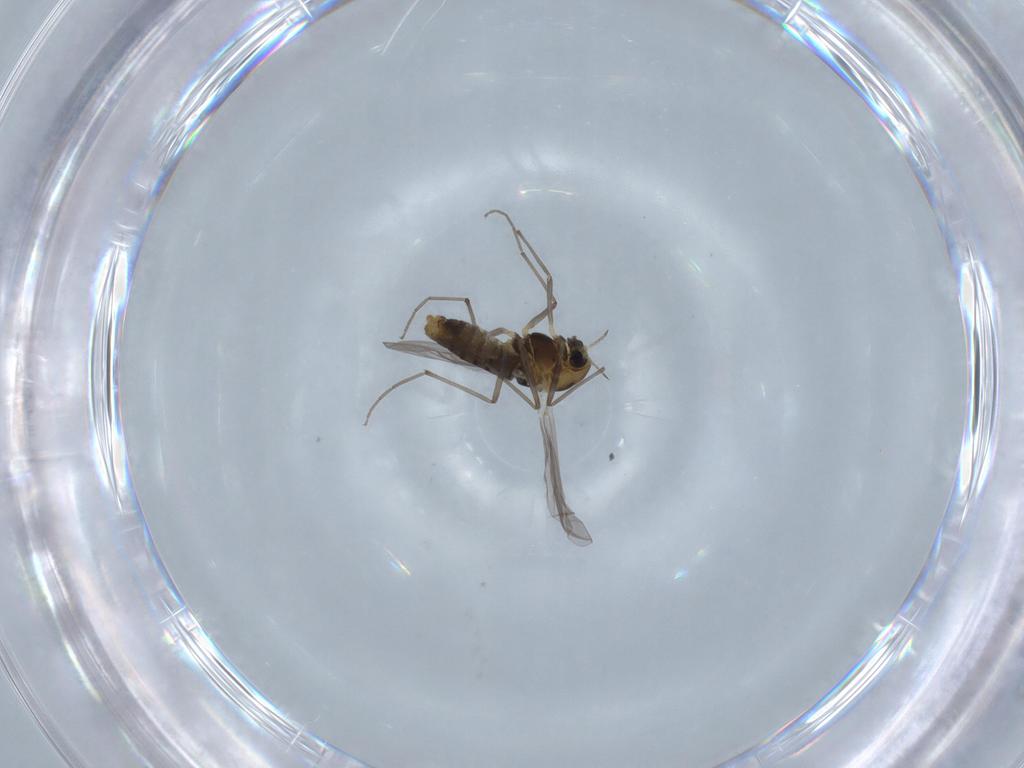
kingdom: Animalia
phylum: Arthropoda
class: Insecta
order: Diptera
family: Chironomidae
